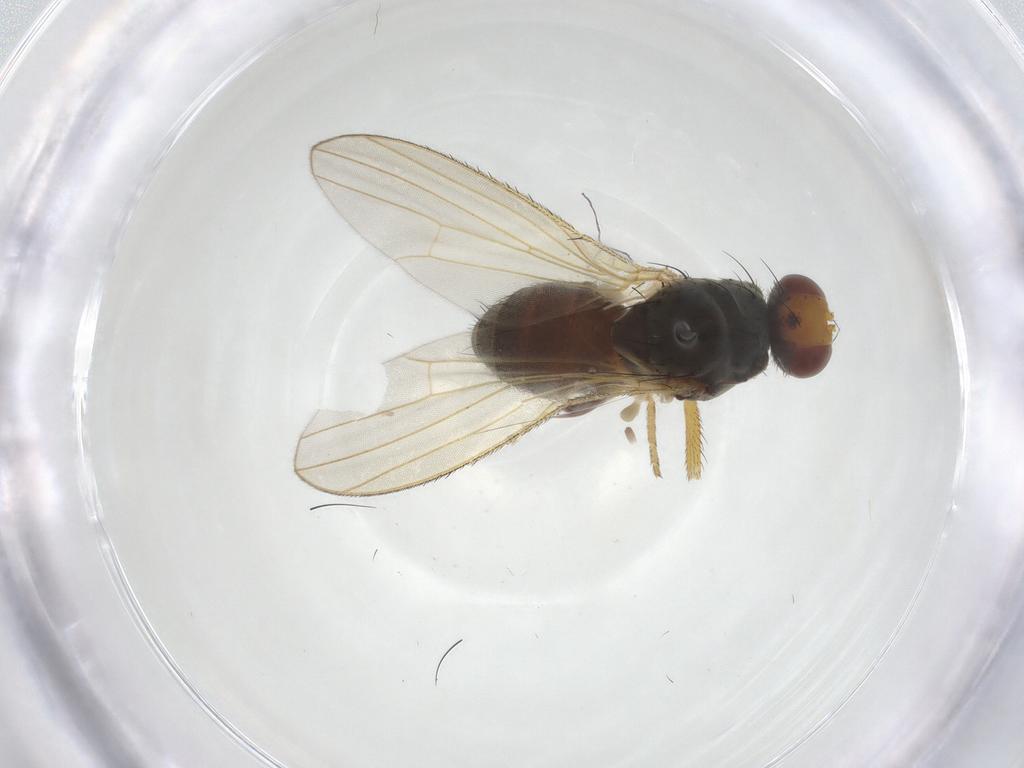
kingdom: Animalia
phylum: Arthropoda
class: Insecta
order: Diptera
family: Heleomyzidae
